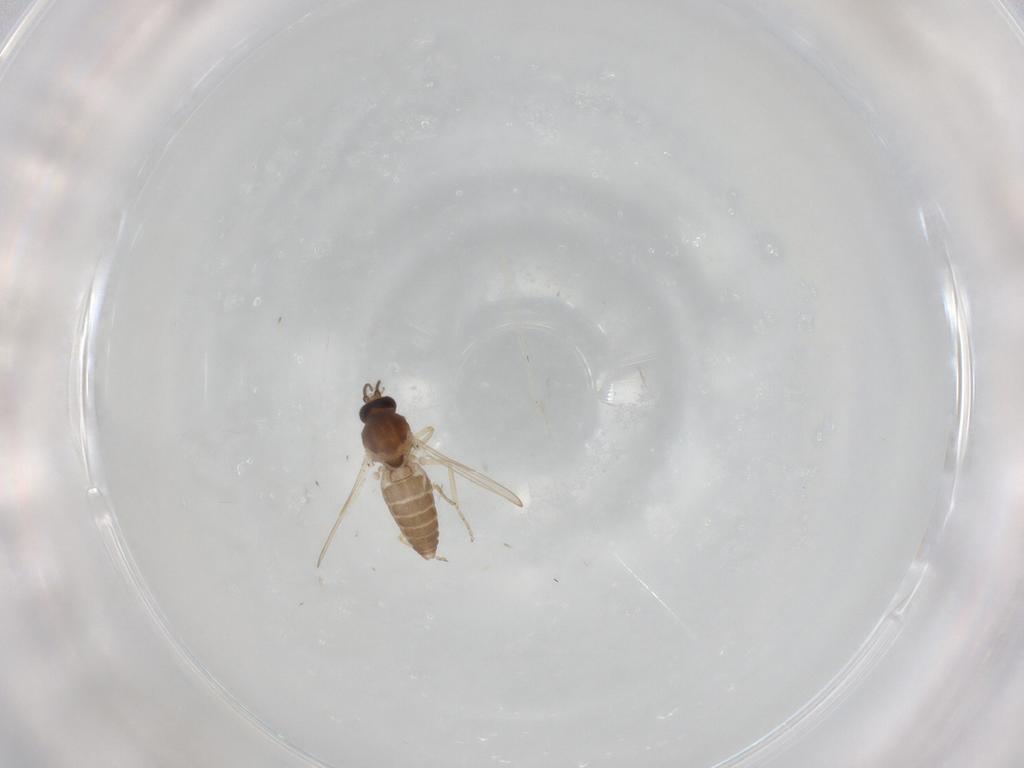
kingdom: Animalia
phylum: Arthropoda
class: Insecta
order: Diptera
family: Ceratopogonidae
